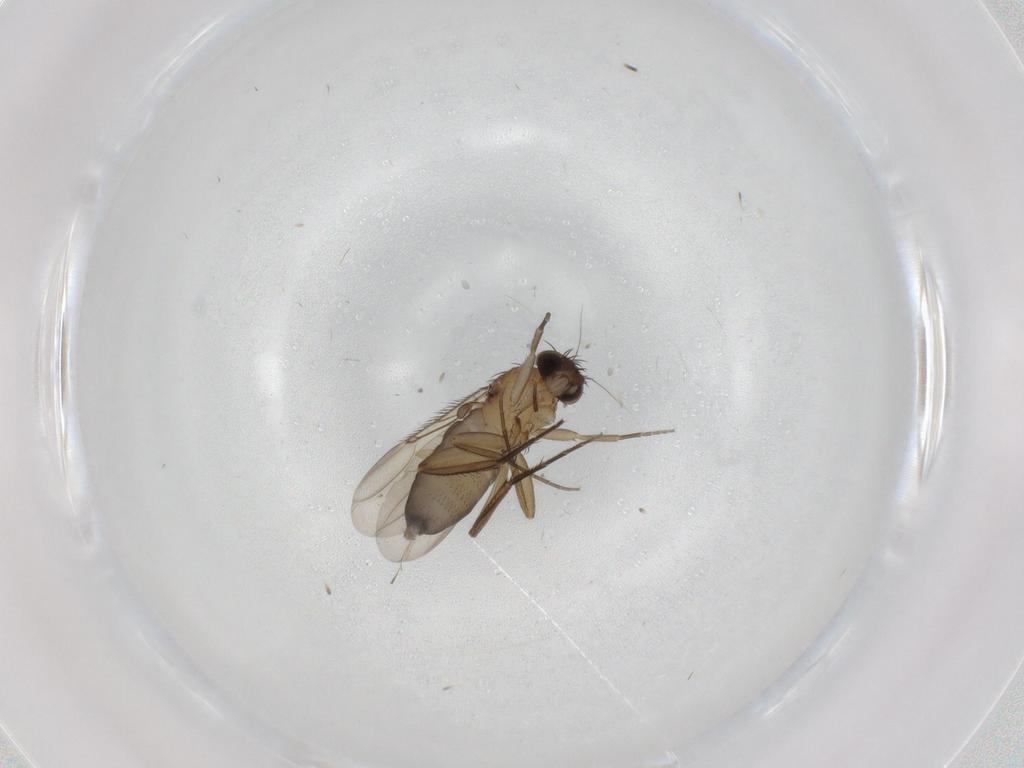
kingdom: Animalia
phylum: Arthropoda
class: Insecta
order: Diptera
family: Phoridae
